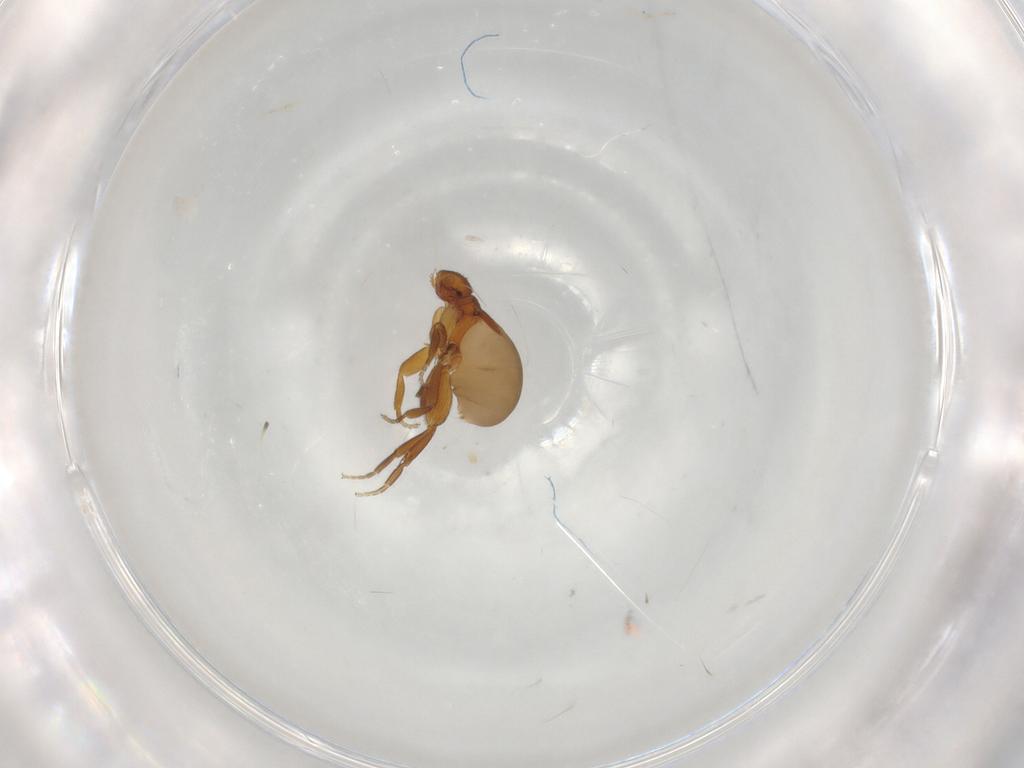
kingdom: Animalia
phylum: Arthropoda
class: Insecta
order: Diptera
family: Phoridae
